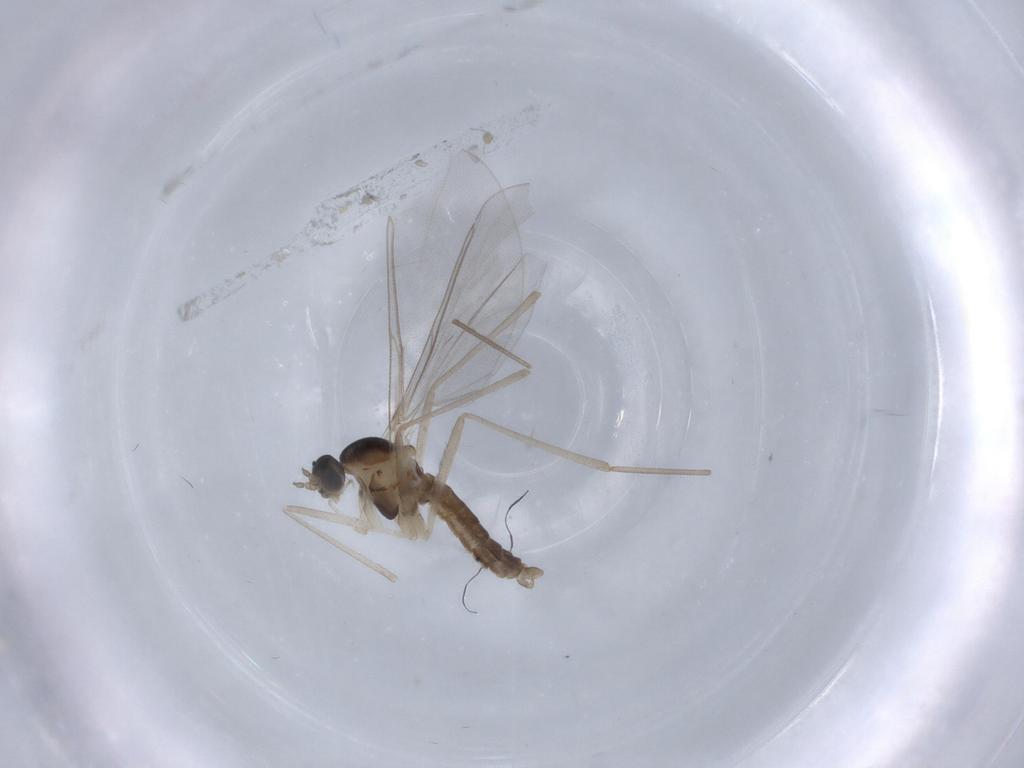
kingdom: Animalia
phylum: Arthropoda
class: Insecta
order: Diptera
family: Cecidomyiidae
